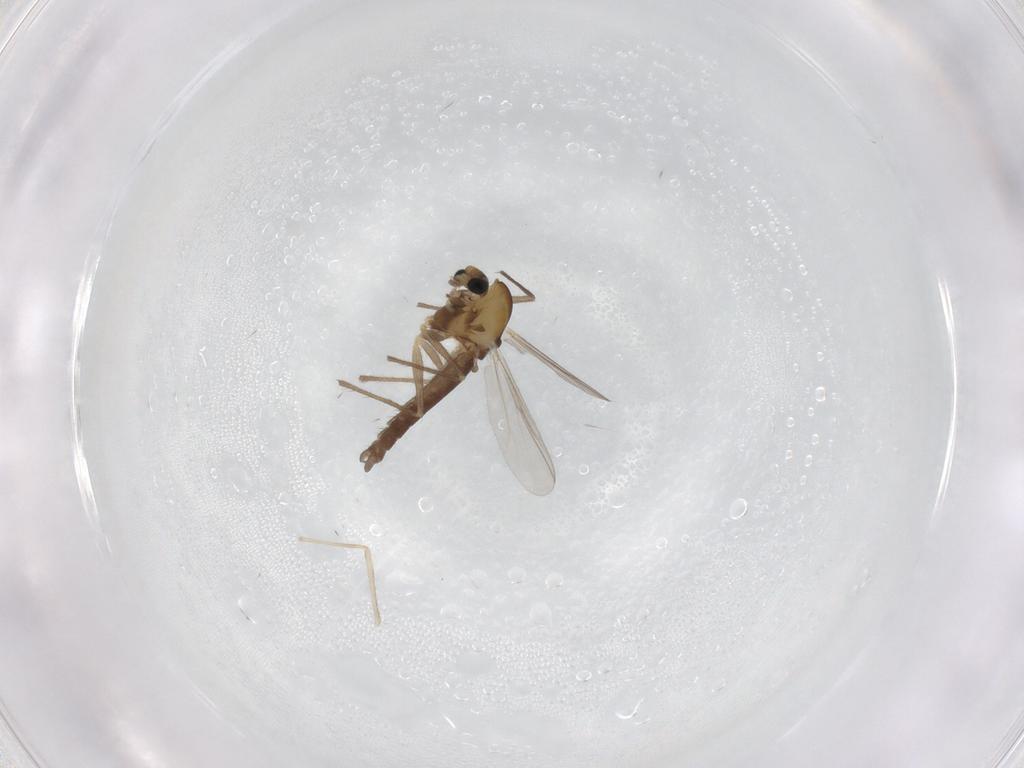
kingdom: Animalia
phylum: Arthropoda
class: Insecta
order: Diptera
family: Chironomidae
